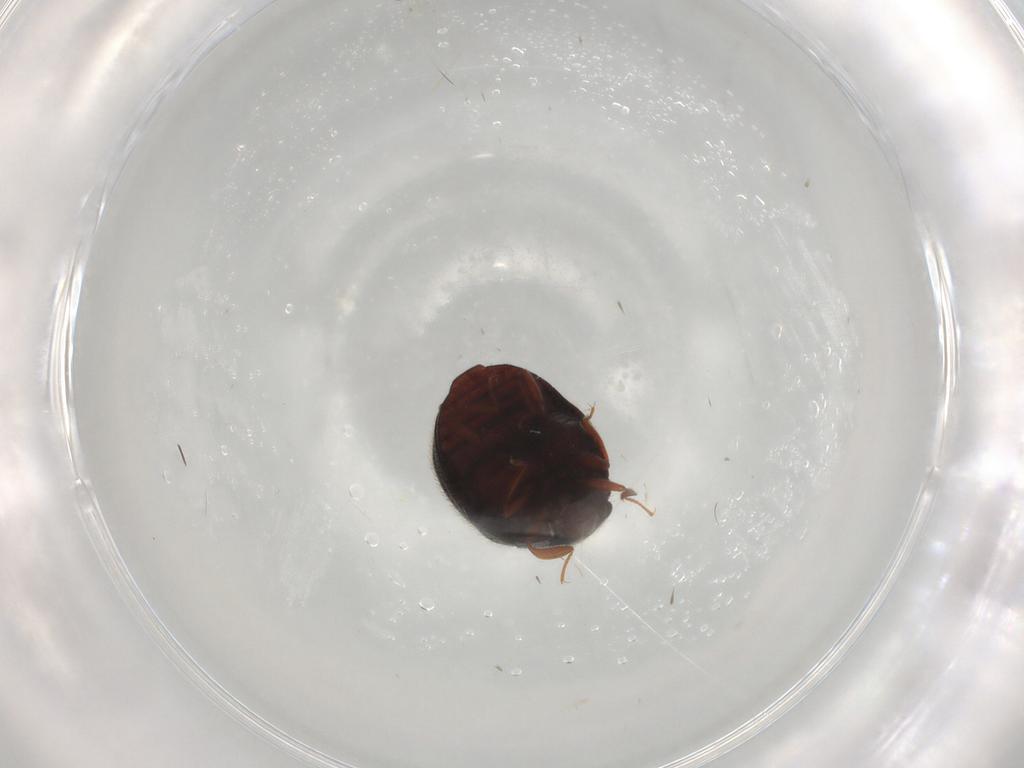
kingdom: Animalia
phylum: Arthropoda
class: Insecta
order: Coleoptera
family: Sphindidae
